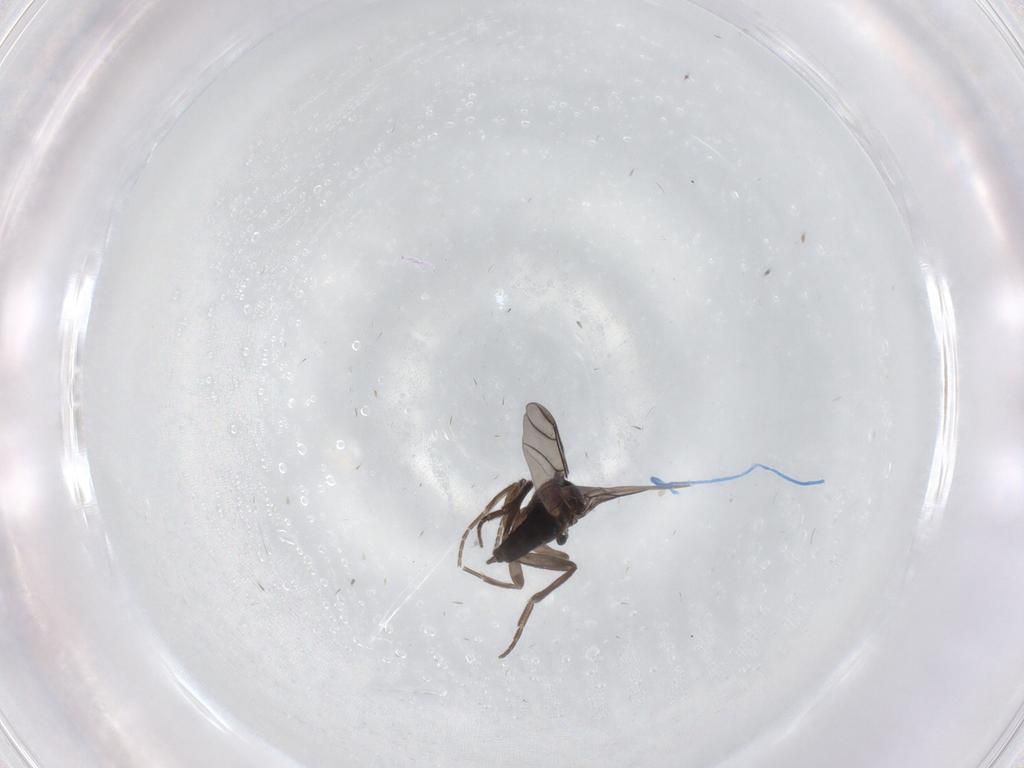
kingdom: Animalia
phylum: Arthropoda
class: Insecta
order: Diptera
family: Phoridae
